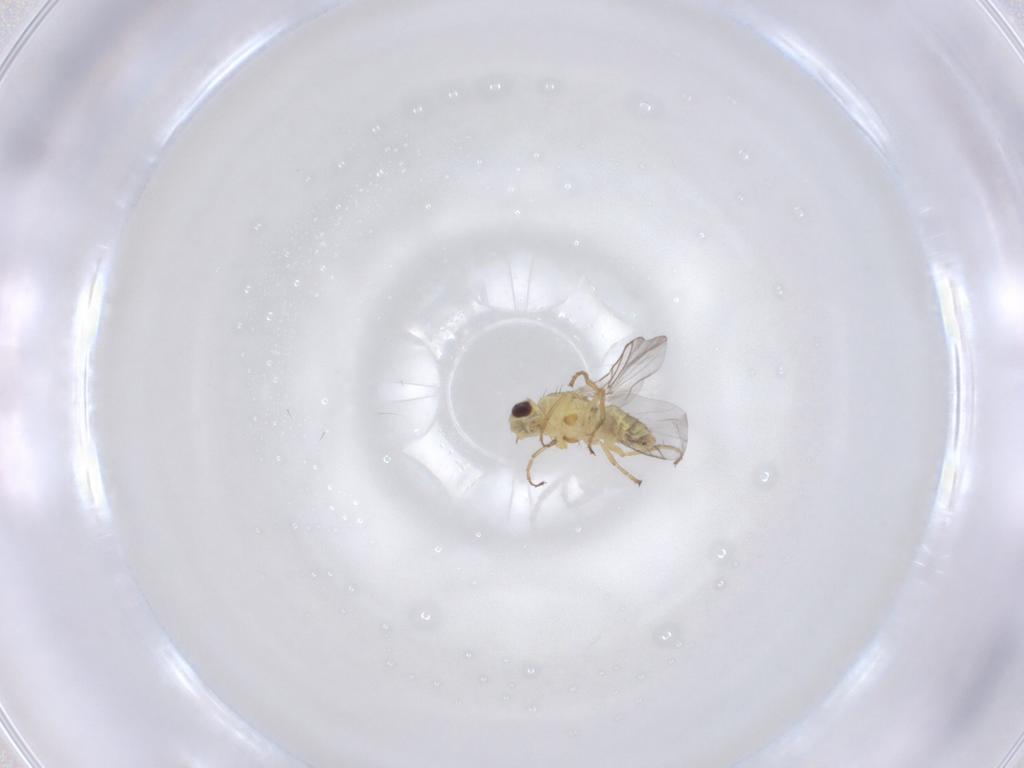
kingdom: Animalia
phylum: Arthropoda
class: Insecta
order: Diptera
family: Agromyzidae
